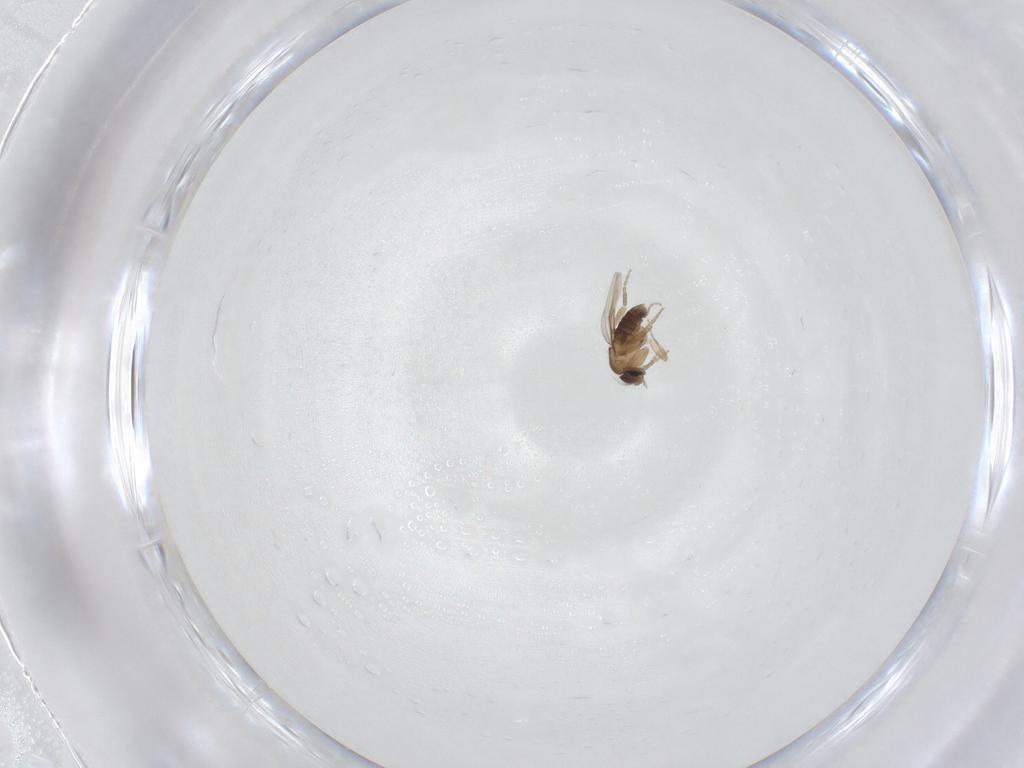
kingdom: Animalia
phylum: Arthropoda
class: Insecta
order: Diptera
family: Phoridae
